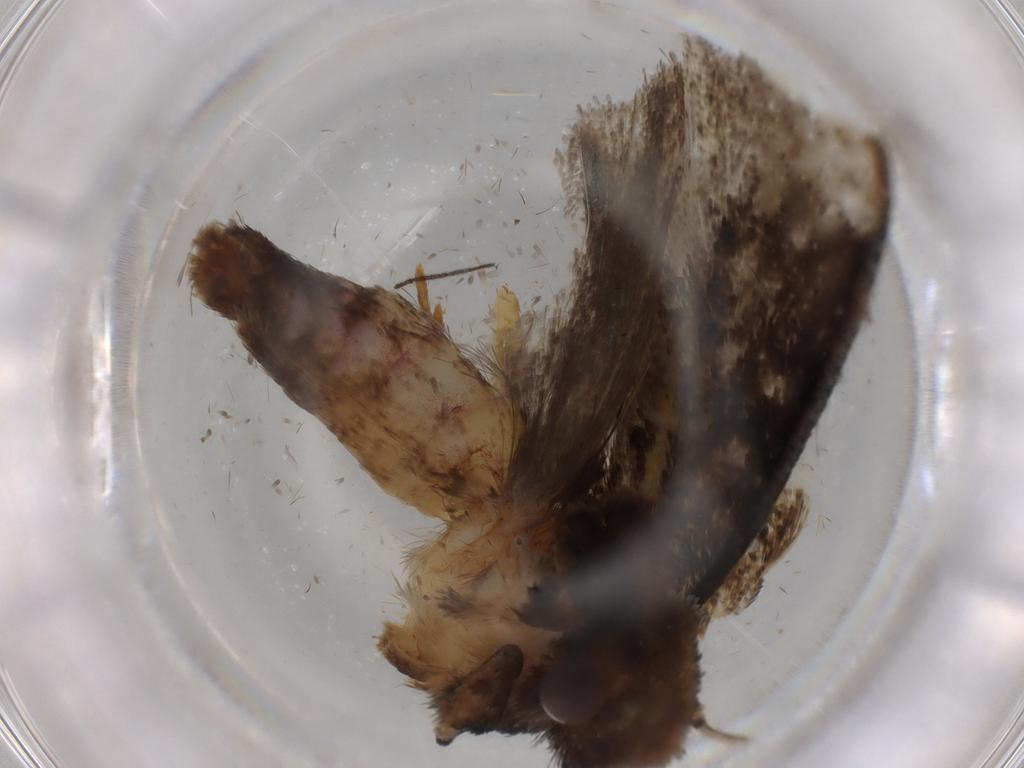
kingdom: Animalia
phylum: Arthropoda
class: Insecta
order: Lepidoptera
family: Tineidae
